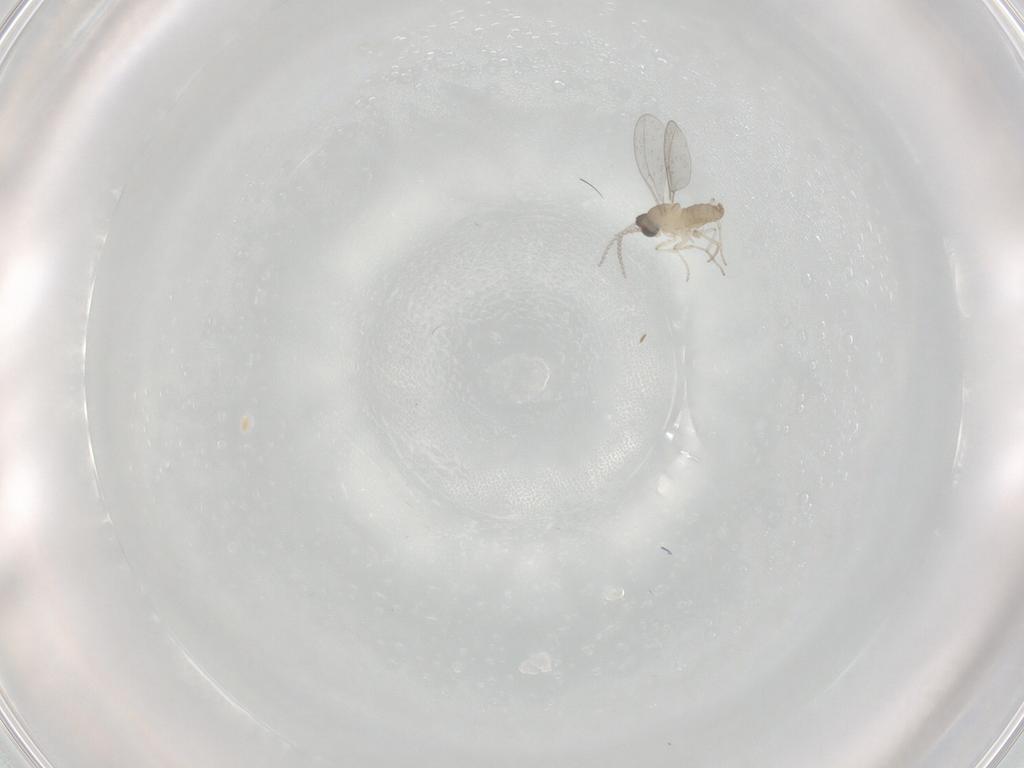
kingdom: Animalia
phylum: Arthropoda
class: Insecta
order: Diptera
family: Cecidomyiidae
